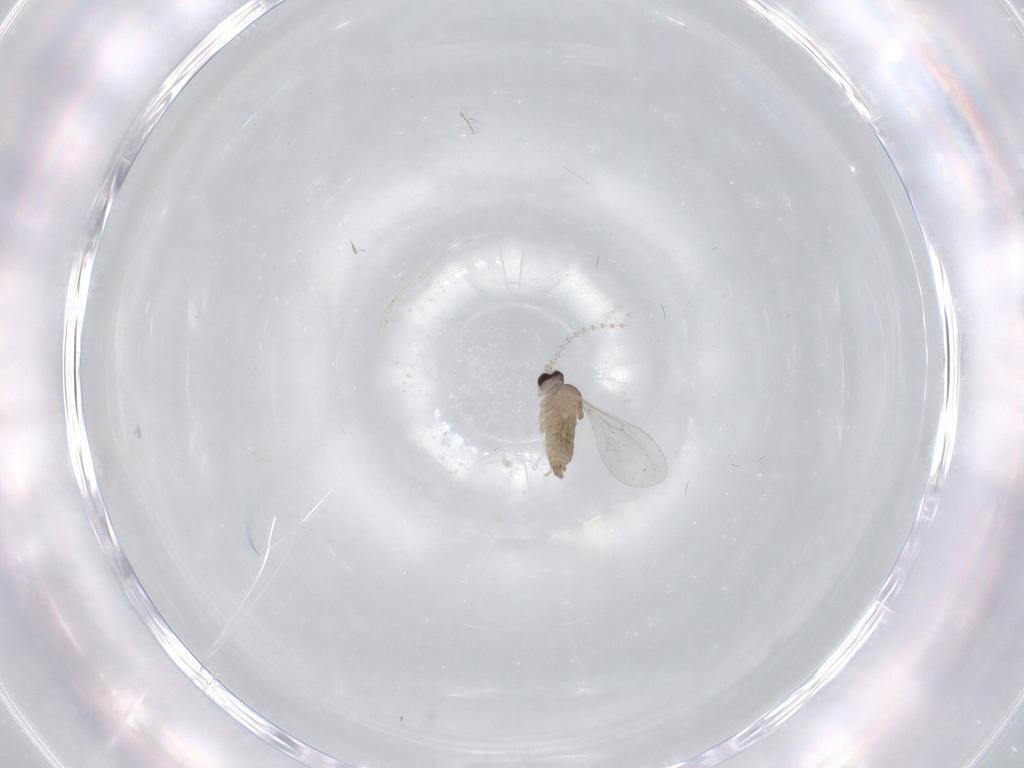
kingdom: Animalia
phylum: Arthropoda
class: Insecta
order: Diptera
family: Cecidomyiidae
